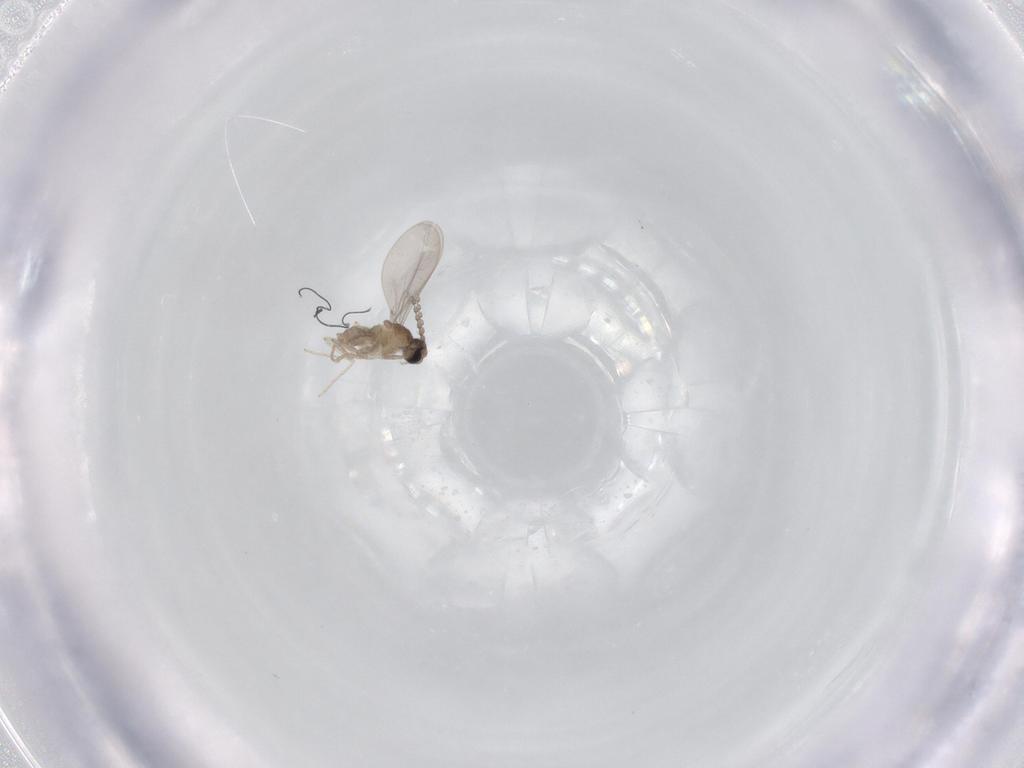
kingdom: Animalia
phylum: Arthropoda
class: Insecta
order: Diptera
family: Cecidomyiidae
